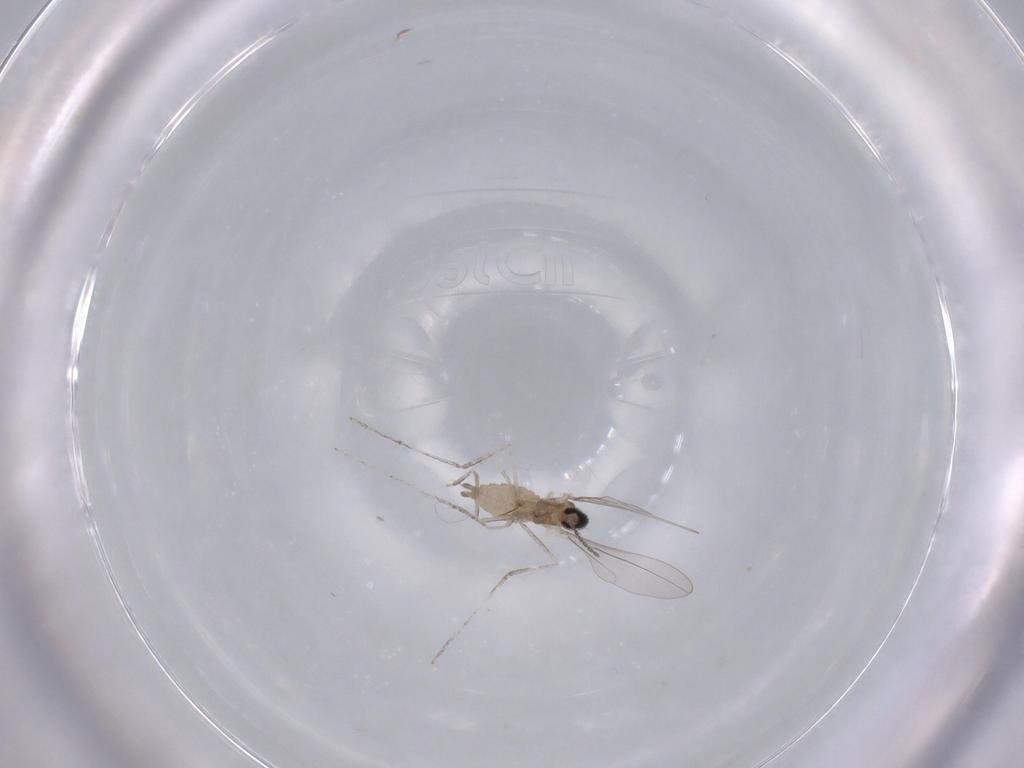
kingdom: Animalia
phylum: Arthropoda
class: Insecta
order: Diptera
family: Cecidomyiidae
